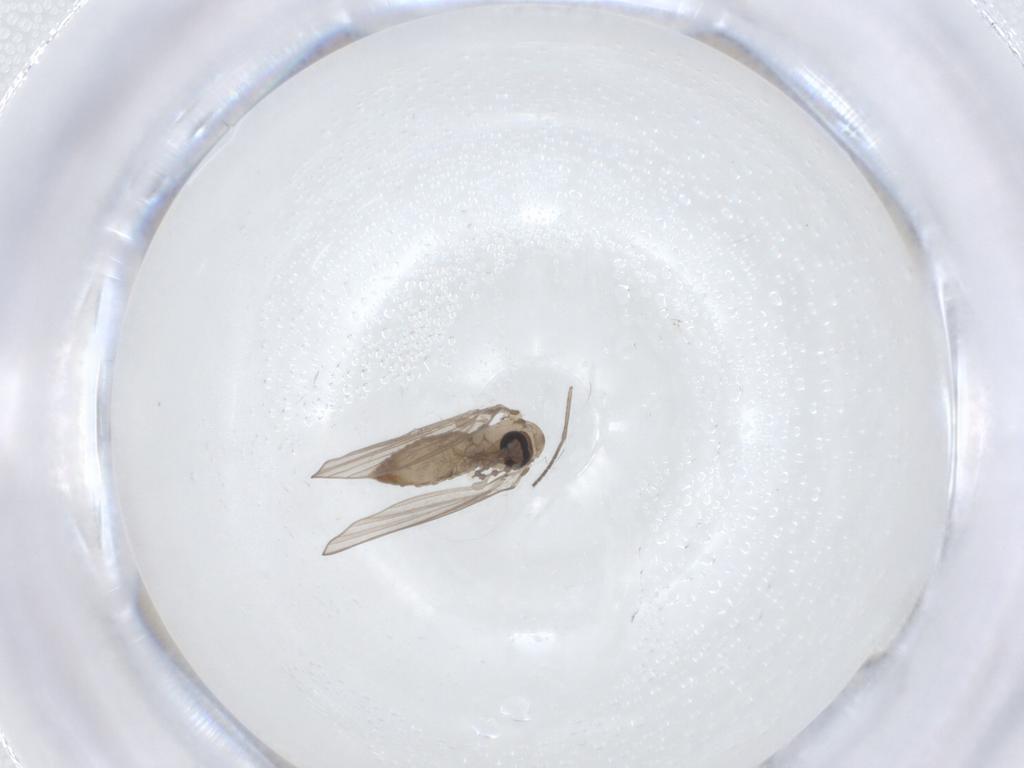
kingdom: Animalia
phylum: Arthropoda
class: Insecta
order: Diptera
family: Psychodidae
